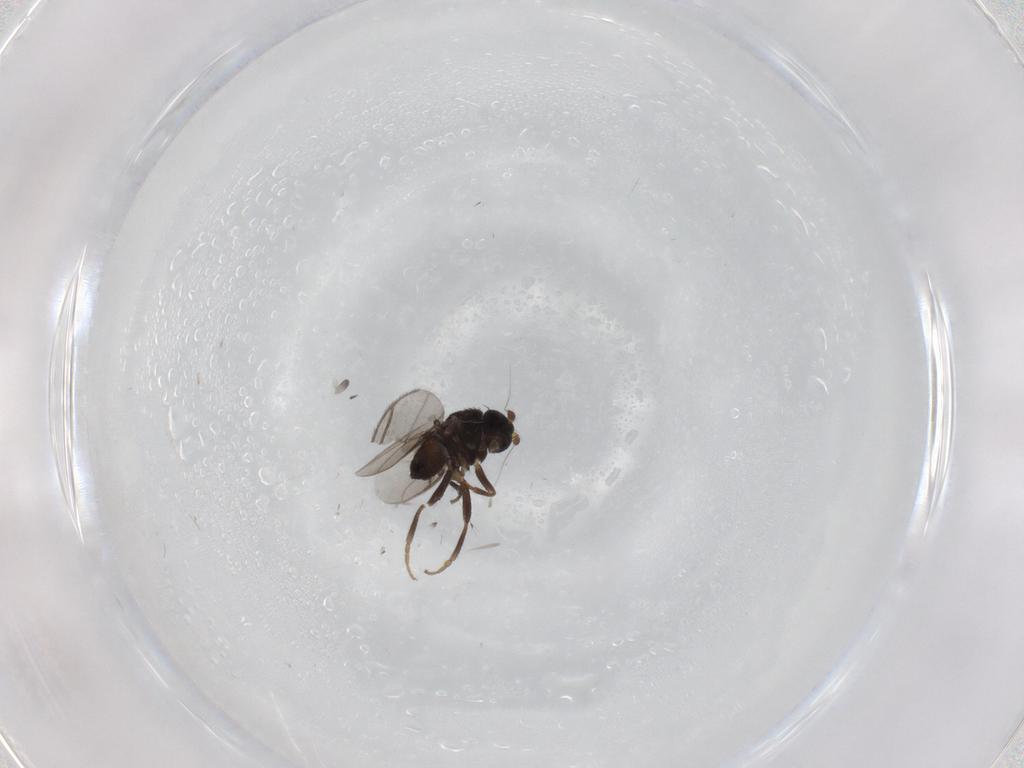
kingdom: Animalia
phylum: Arthropoda
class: Insecta
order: Diptera
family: Sphaeroceridae
